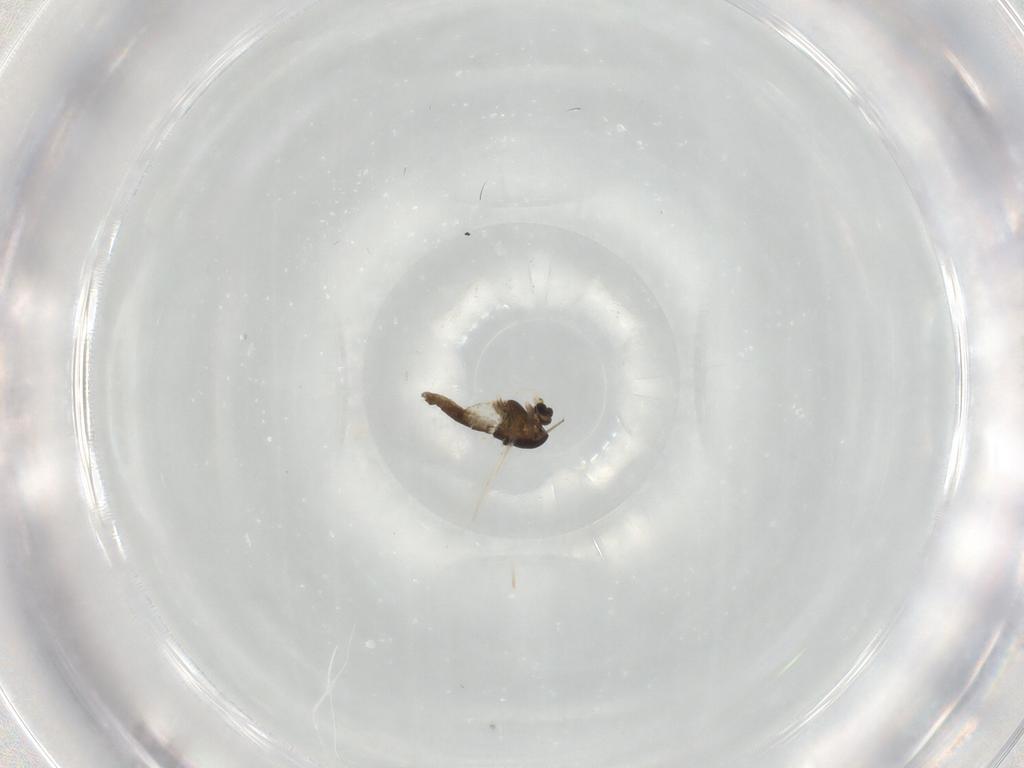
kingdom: Animalia
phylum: Arthropoda
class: Insecta
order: Diptera
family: Chironomidae
